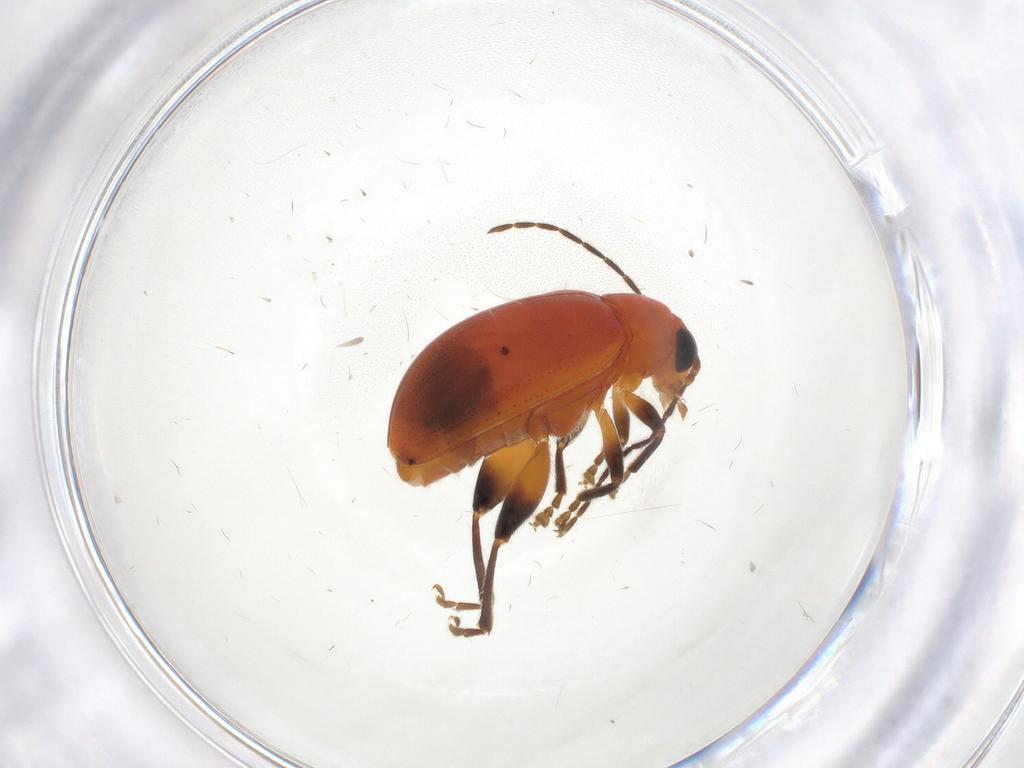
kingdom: Animalia
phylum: Arthropoda
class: Insecta
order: Coleoptera
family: Chrysomelidae
